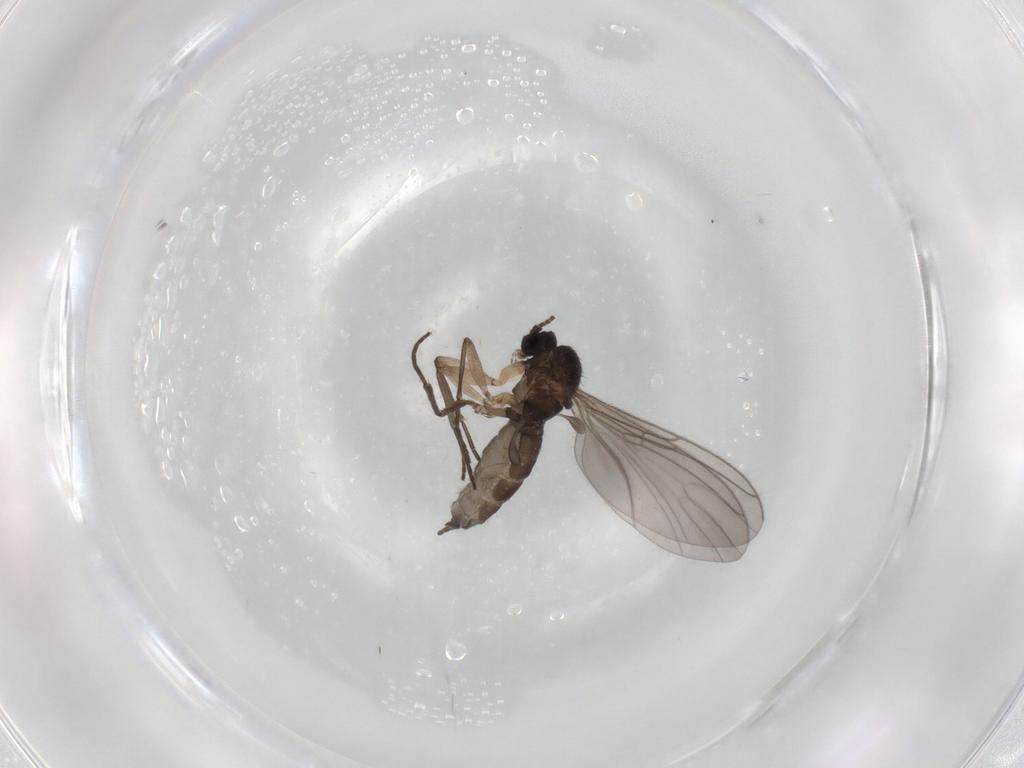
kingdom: Animalia
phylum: Arthropoda
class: Insecta
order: Diptera
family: Sciaridae
